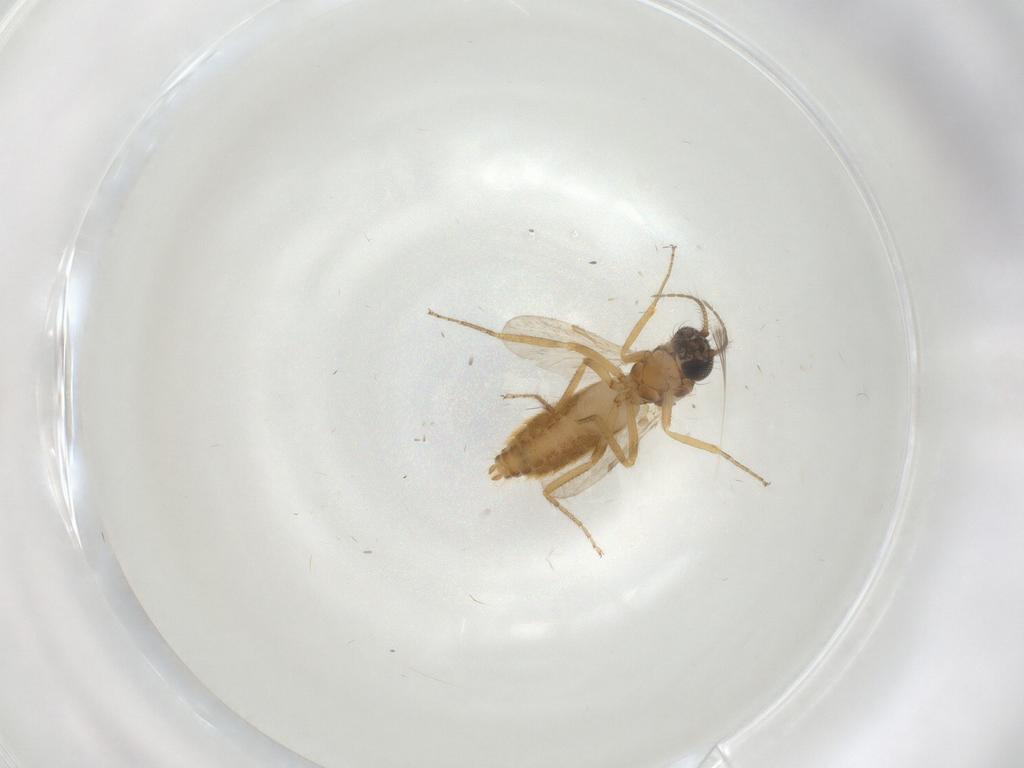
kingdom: Animalia
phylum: Arthropoda
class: Insecta
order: Diptera
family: Ceratopogonidae
